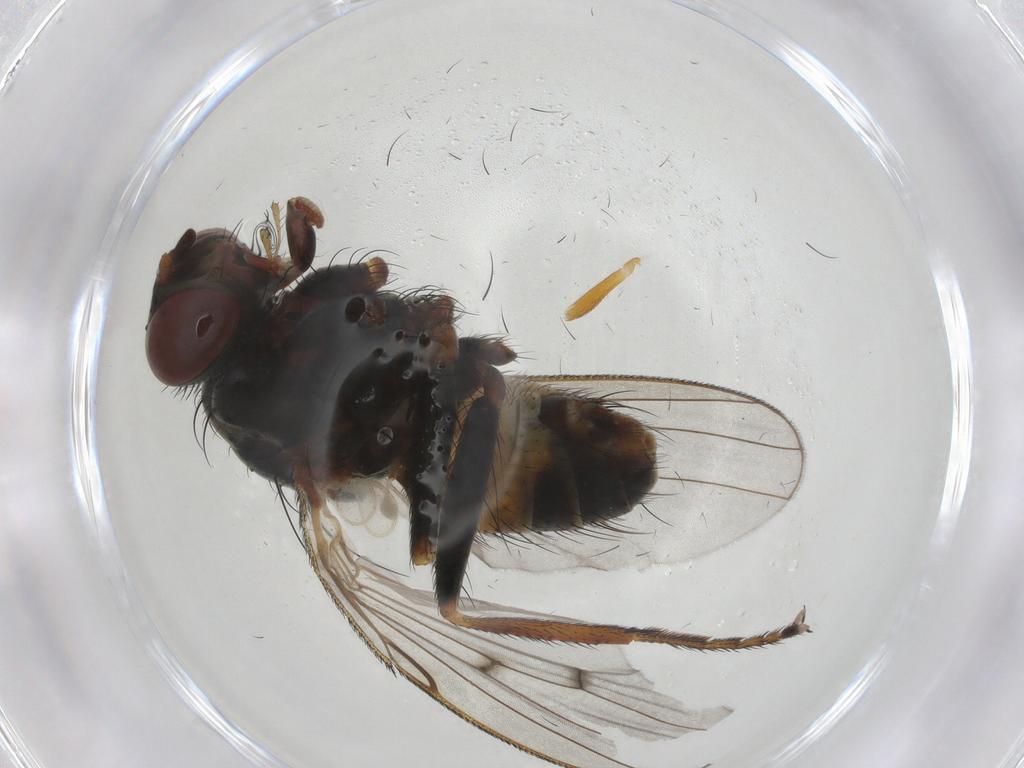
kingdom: Animalia
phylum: Arthropoda
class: Insecta
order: Diptera
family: Muscidae
